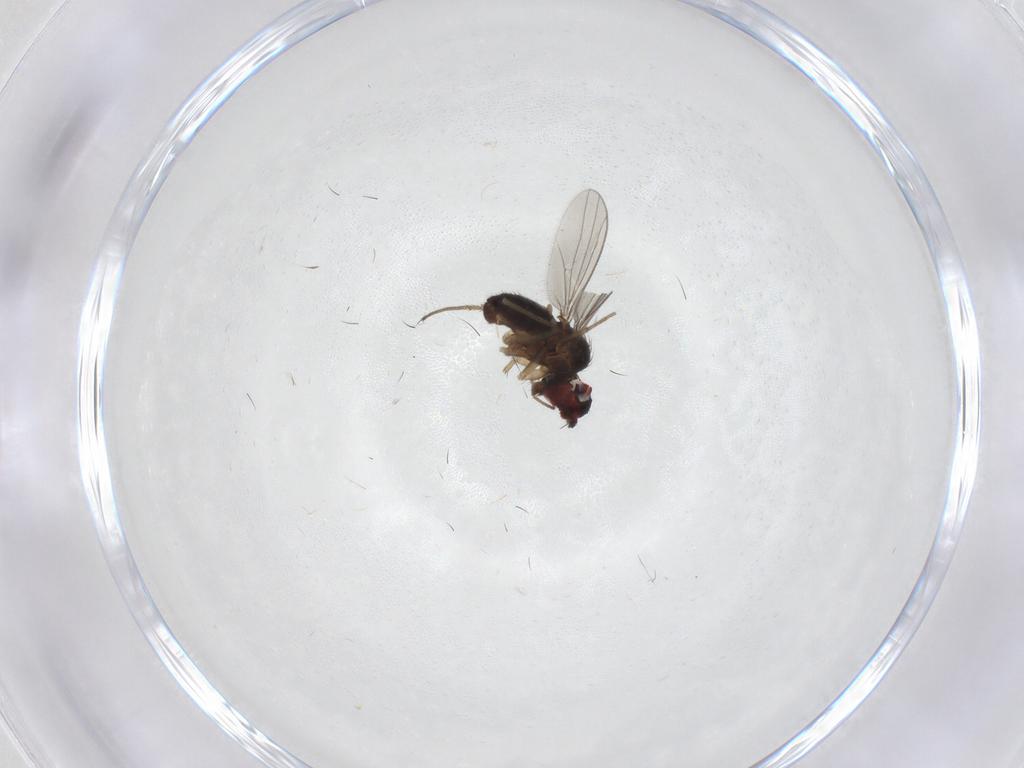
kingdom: Animalia
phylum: Arthropoda
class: Insecta
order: Diptera
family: Dolichopodidae
